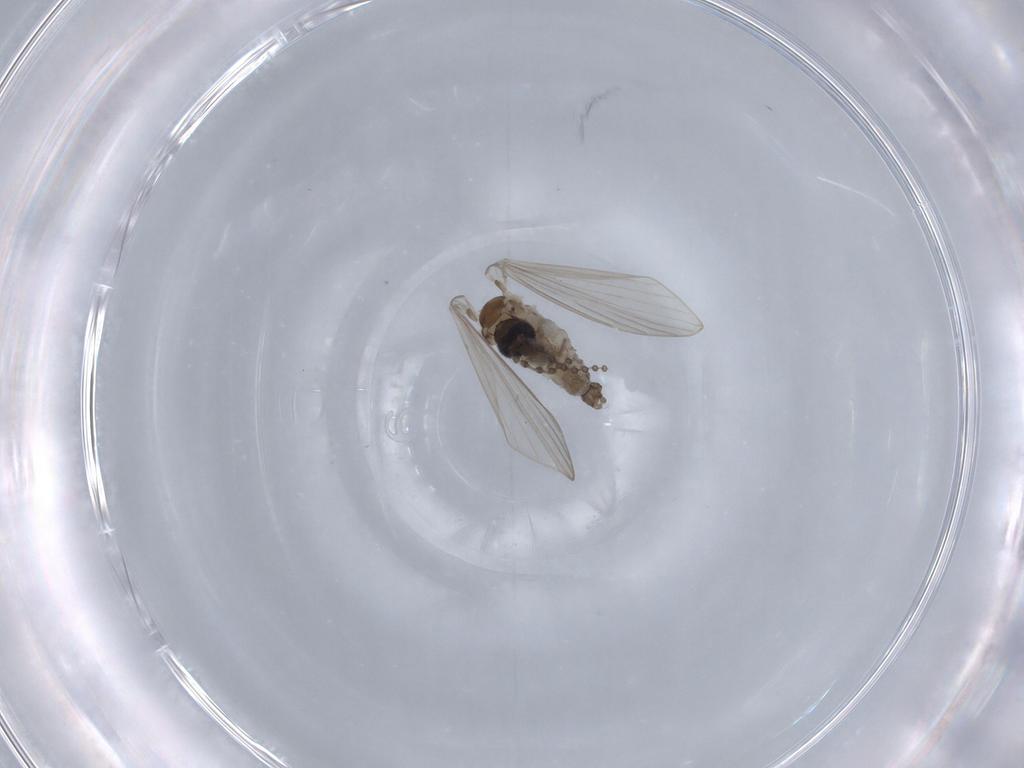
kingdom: Animalia
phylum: Arthropoda
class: Insecta
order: Diptera
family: Psychodidae
